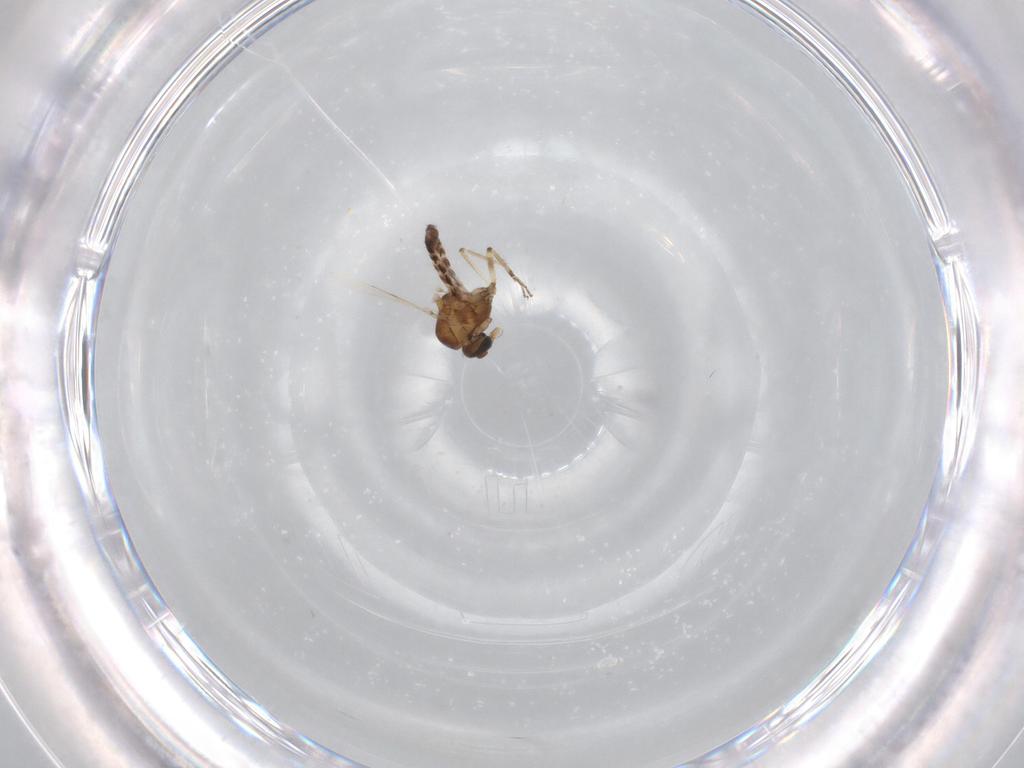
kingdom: Animalia
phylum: Arthropoda
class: Insecta
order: Diptera
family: Ceratopogonidae
